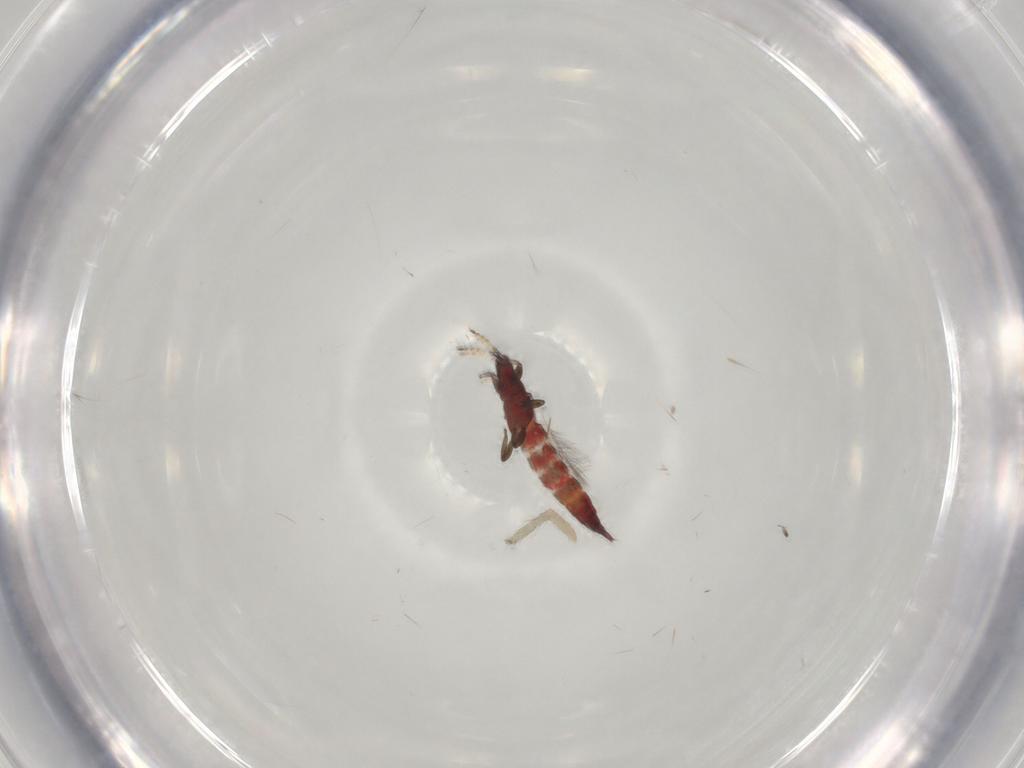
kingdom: Animalia
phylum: Arthropoda
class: Insecta
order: Thysanoptera
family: Phlaeothripidae
